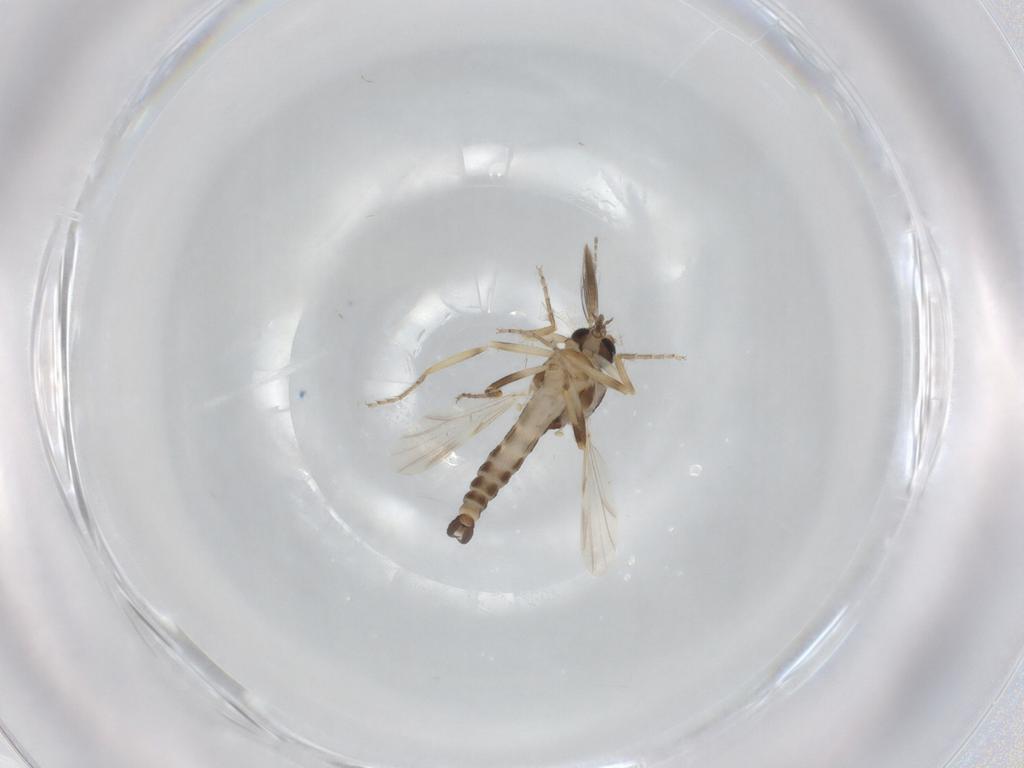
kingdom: Animalia
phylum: Arthropoda
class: Insecta
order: Diptera
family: Ceratopogonidae
